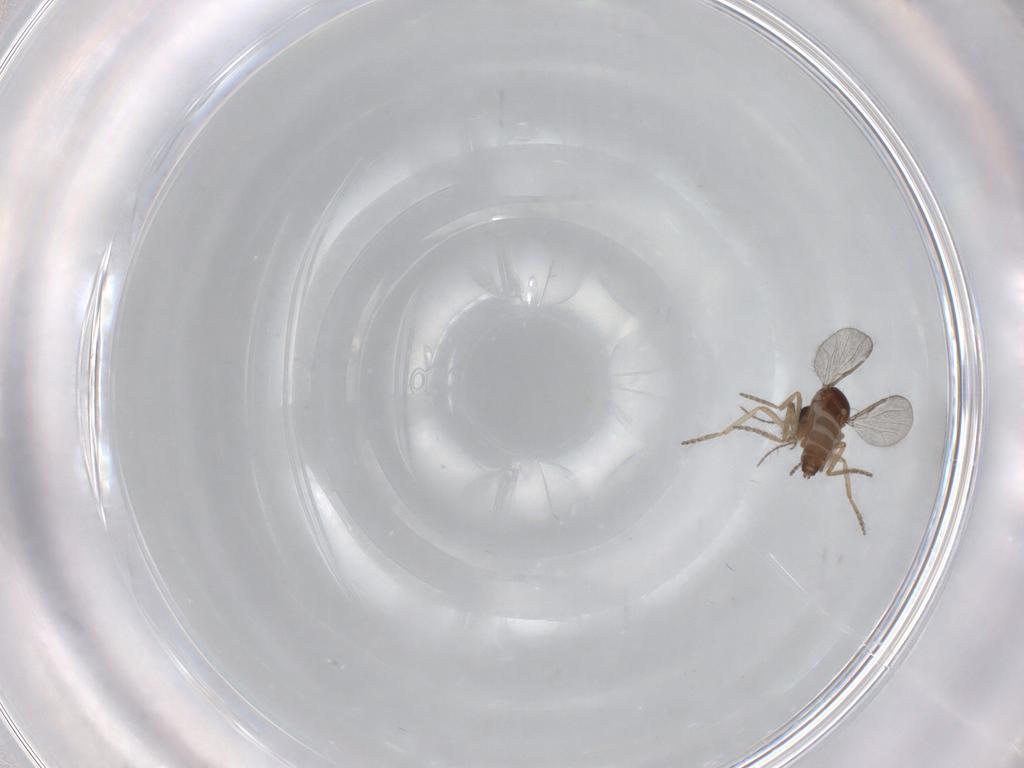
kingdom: Animalia
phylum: Arthropoda
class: Insecta
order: Diptera
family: Ceratopogonidae
